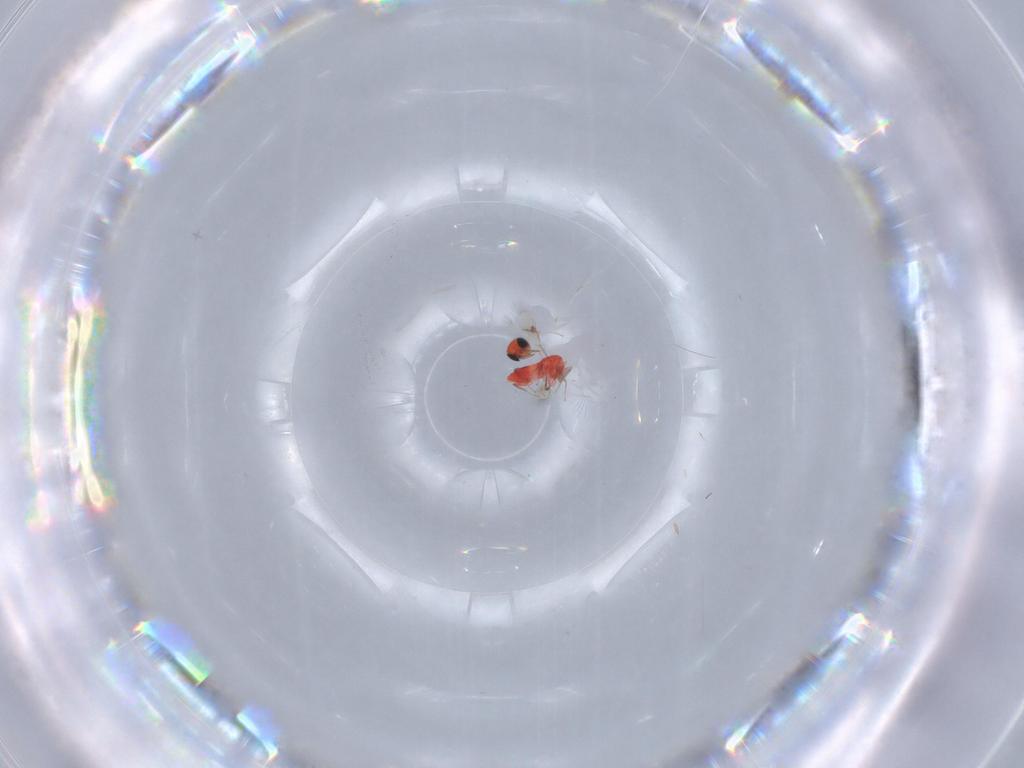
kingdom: Animalia
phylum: Arthropoda
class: Insecta
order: Hymenoptera
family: Trichogrammatidae
